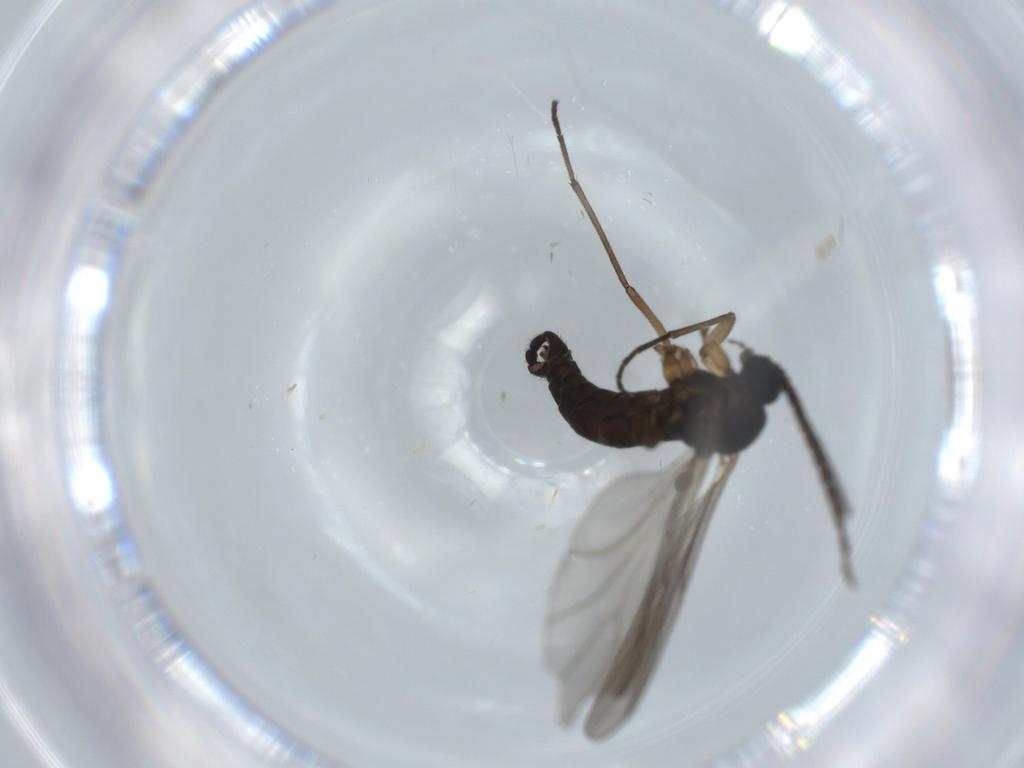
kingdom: Animalia
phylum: Arthropoda
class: Insecta
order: Diptera
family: Sciaridae
